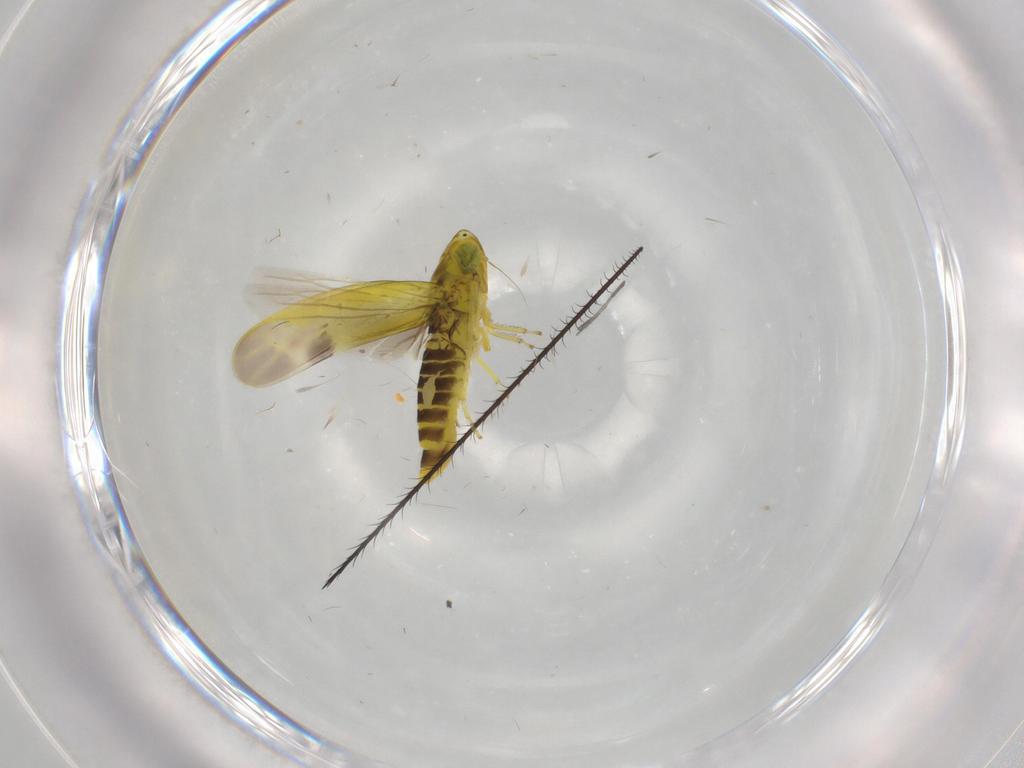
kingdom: Animalia
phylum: Arthropoda
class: Insecta
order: Hemiptera
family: Cicadellidae
